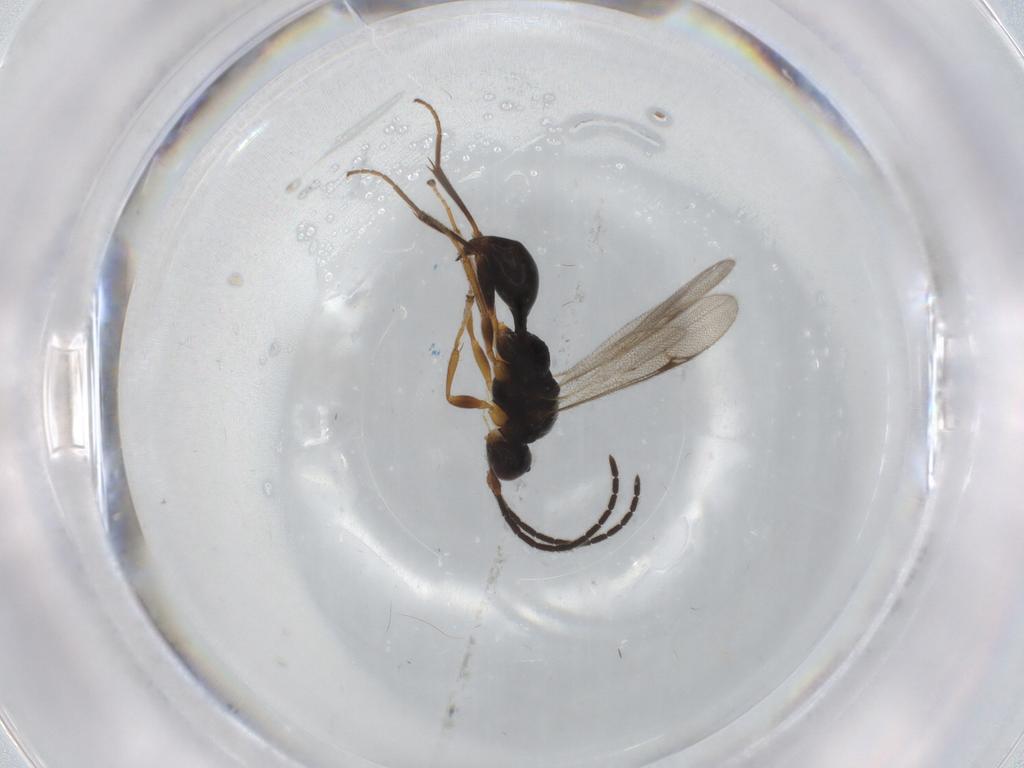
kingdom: Animalia
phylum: Arthropoda
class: Insecta
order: Hymenoptera
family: Proctotrupidae
